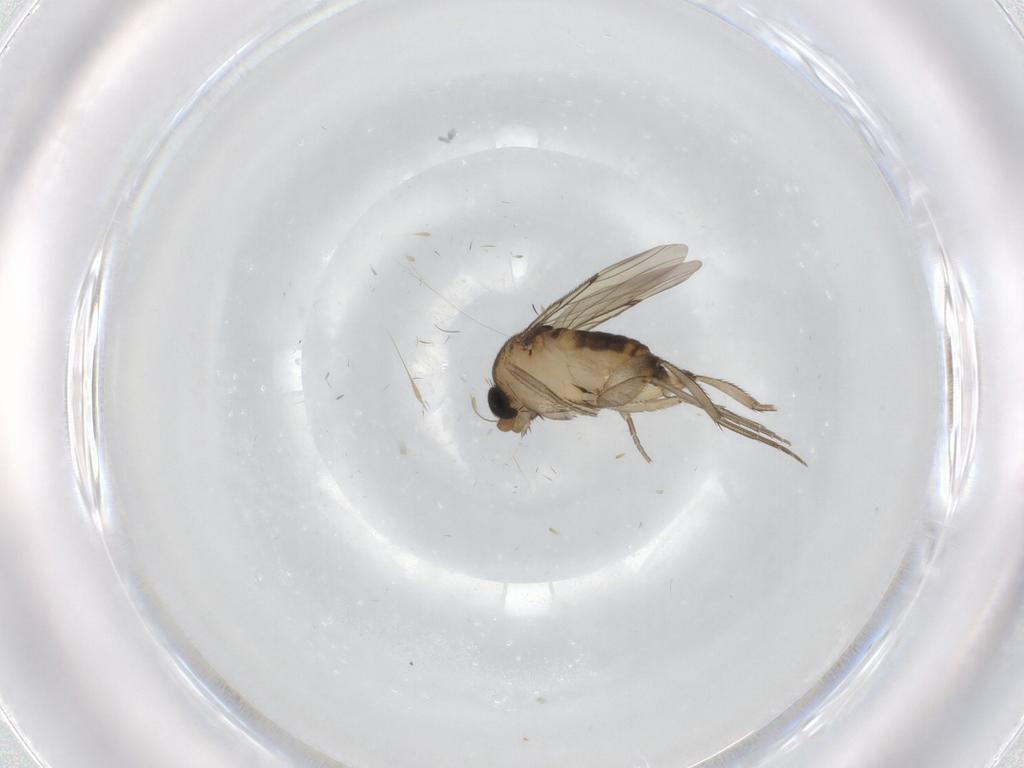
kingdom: Animalia
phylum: Arthropoda
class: Insecta
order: Diptera
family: Phoridae
